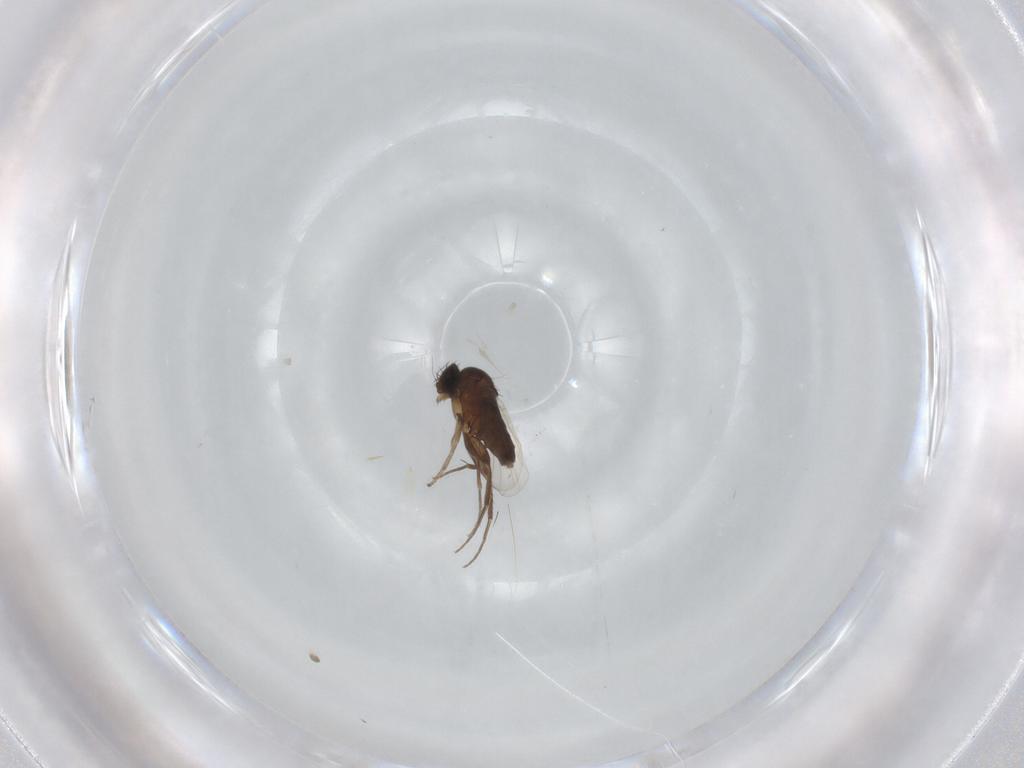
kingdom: Animalia
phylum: Arthropoda
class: Insecta
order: Diptera
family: Phoridae
